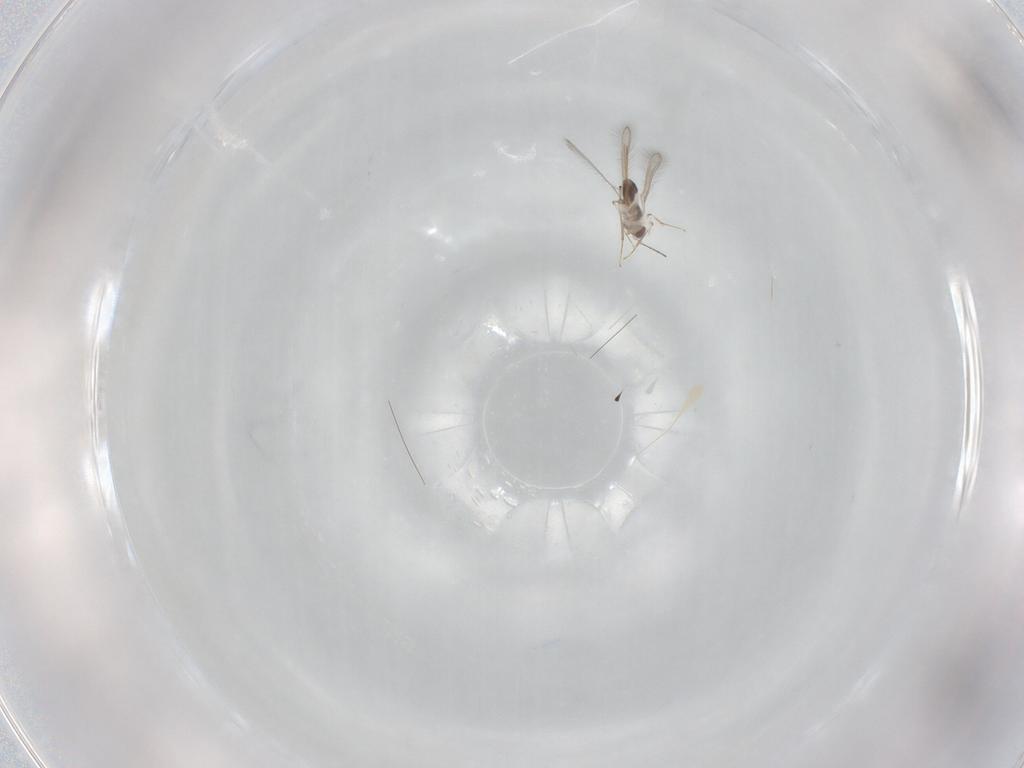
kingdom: Animalia
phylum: Arthropoda
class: Insecta
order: Hymenoptera
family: Mymaridae
